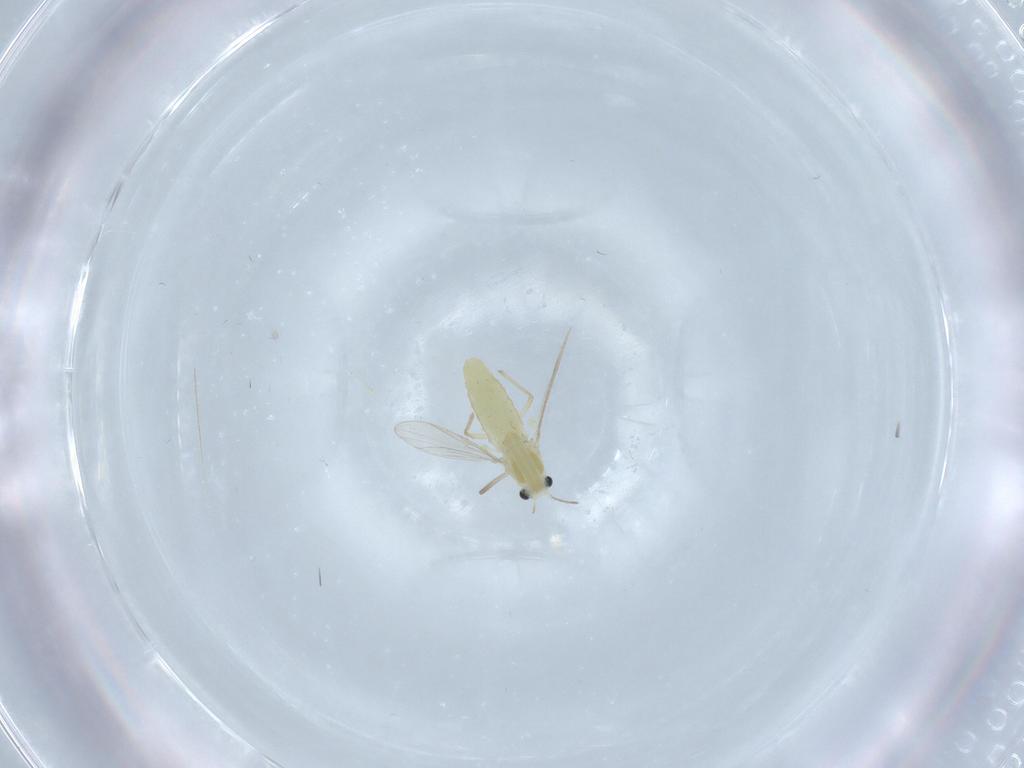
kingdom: Animalia
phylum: Arthropoda
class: Insecta
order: Diptera
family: Chironomidae
